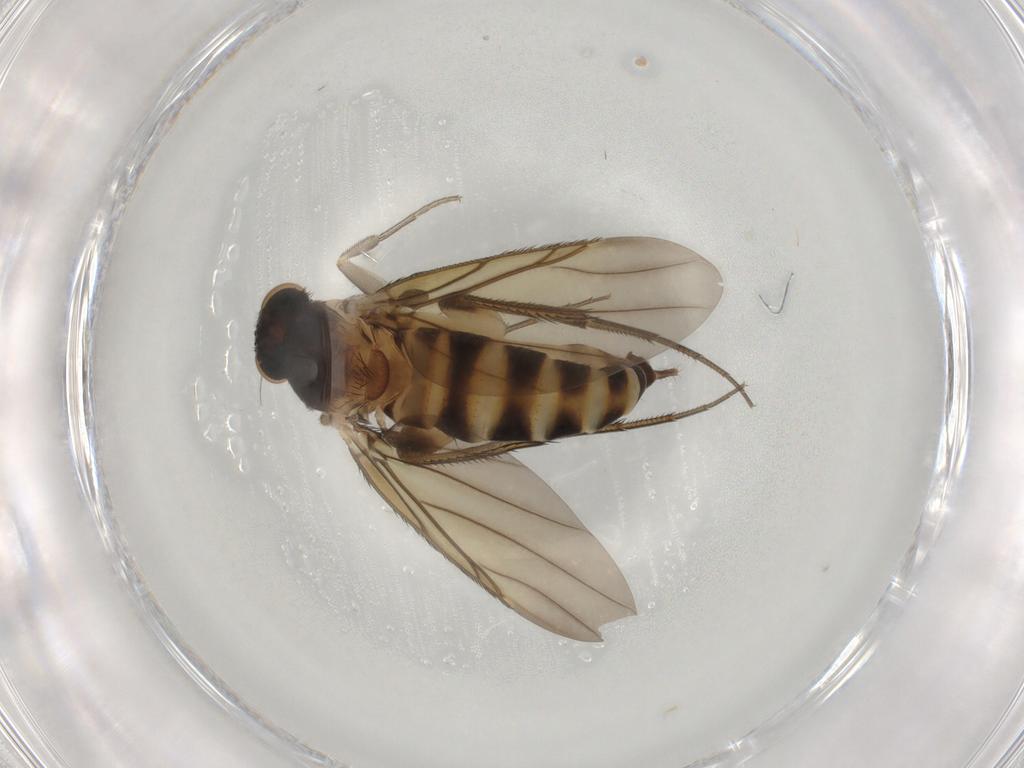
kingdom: Animalia
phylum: Arthropoda
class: Insecta
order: Diptera
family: Phoridae
